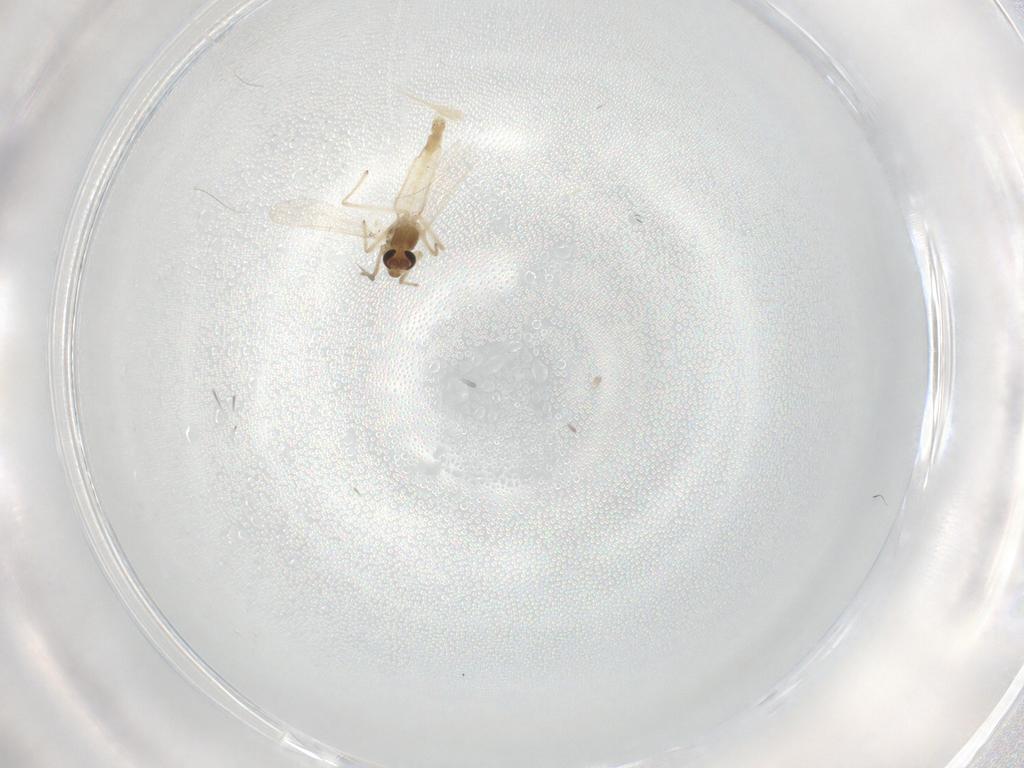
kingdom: Animalia
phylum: Arthropoda
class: Insecta
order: Diptera
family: Chironomidae
